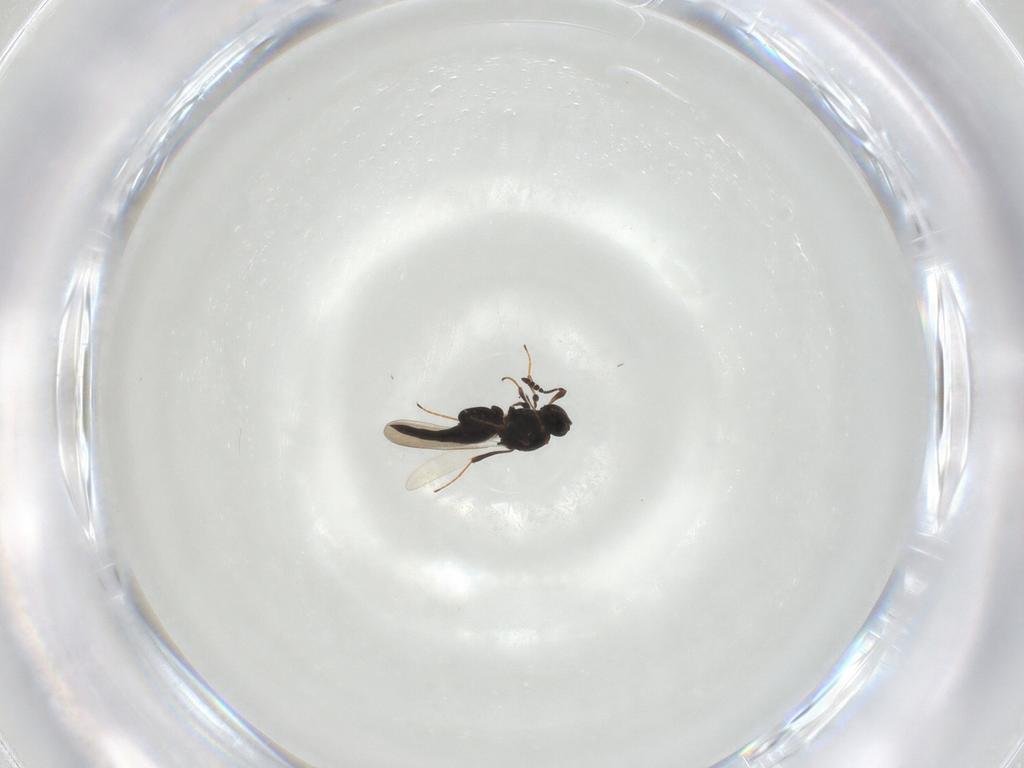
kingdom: Animalia
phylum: Arthropoda
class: Insecta
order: Hymenoptera
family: Platygastridae
